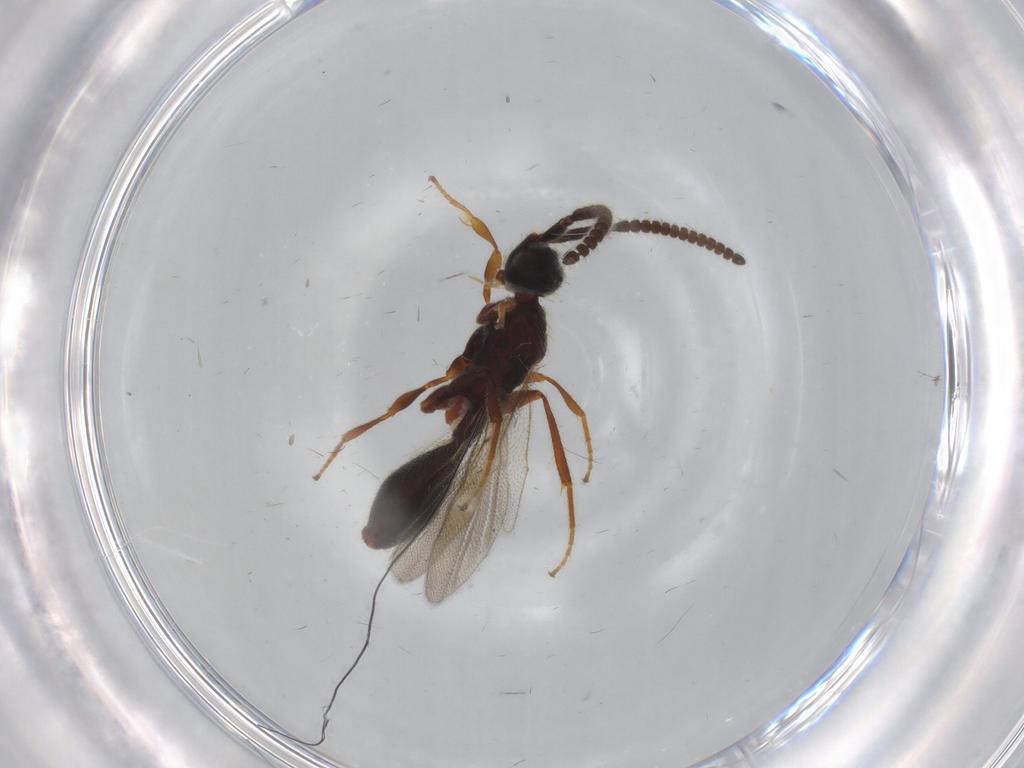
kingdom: Animalia
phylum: Arthropoda
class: Insecta
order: Hymenoptera
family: Diapriidae
